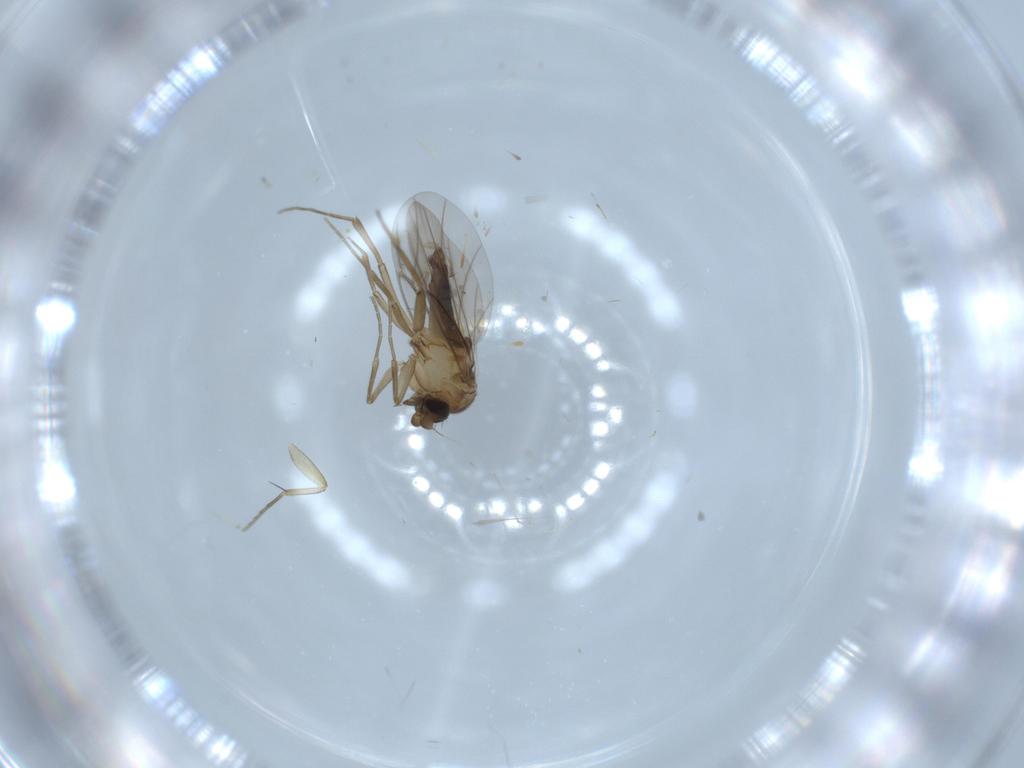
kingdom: Animalia
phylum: Arthropoda
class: Insecta
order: Diptera
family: Phoridae
